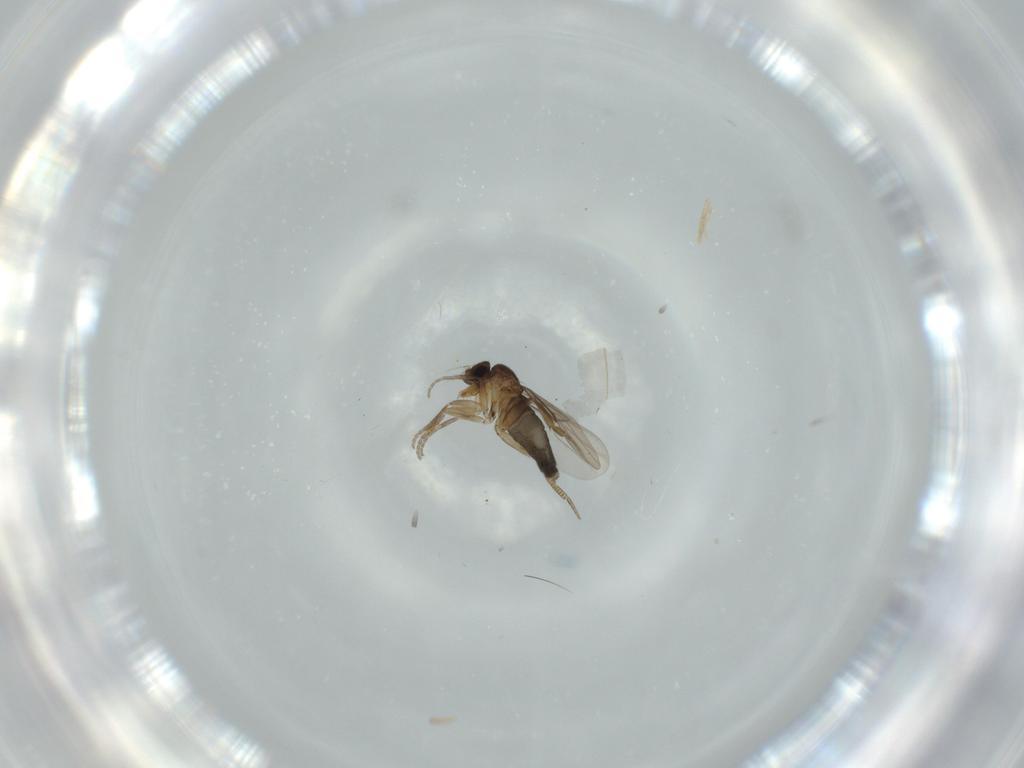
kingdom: Animalia
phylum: Arthropoda
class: Insecta
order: Diptera
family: Phoridae
